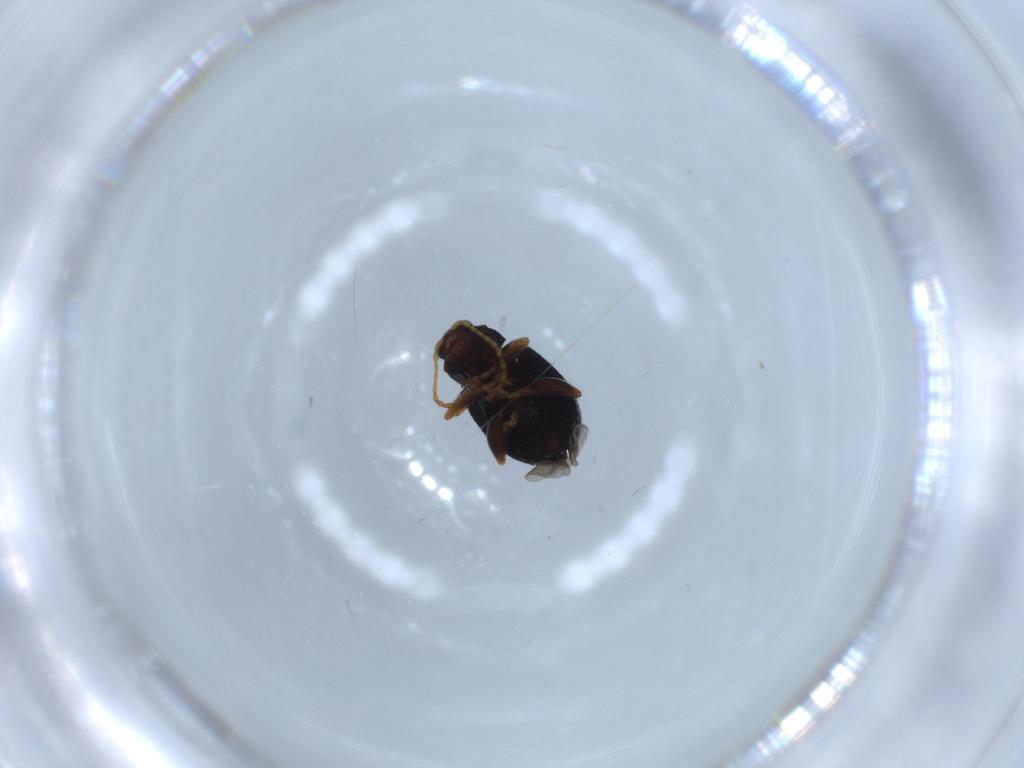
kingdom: Animalia
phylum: Arthropoda
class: Insecta
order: Coleoptera
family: Chrysomelidae
